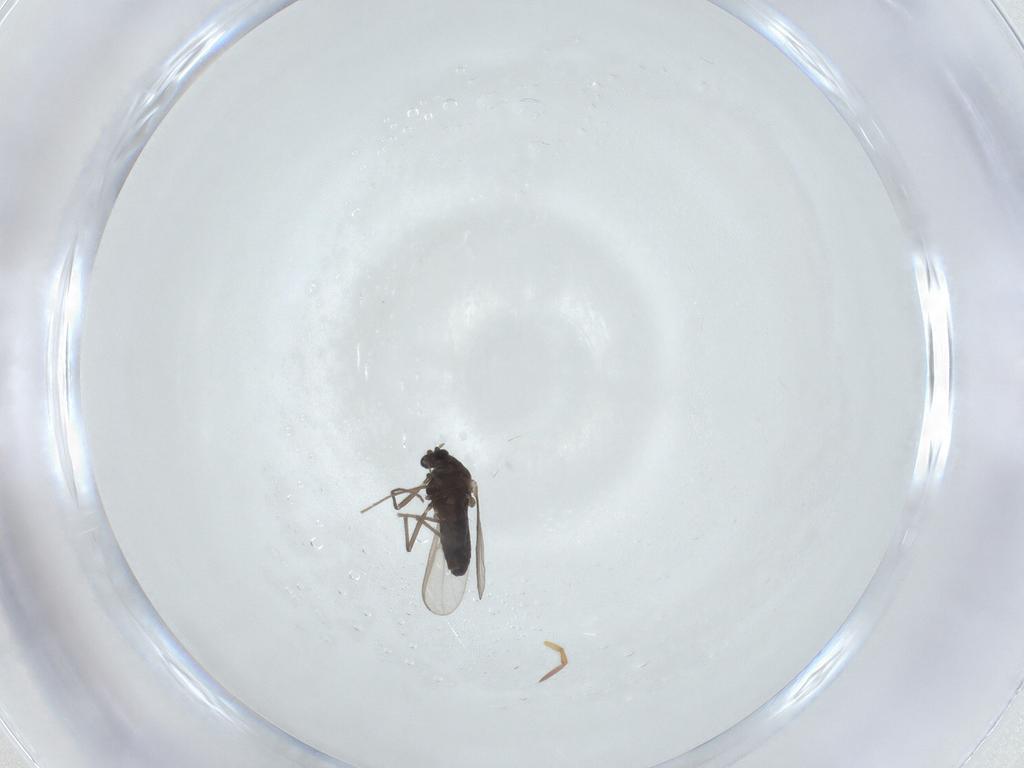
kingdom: Animalia
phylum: Arthropoda
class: Insecta
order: Diptera
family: Chironomidae
